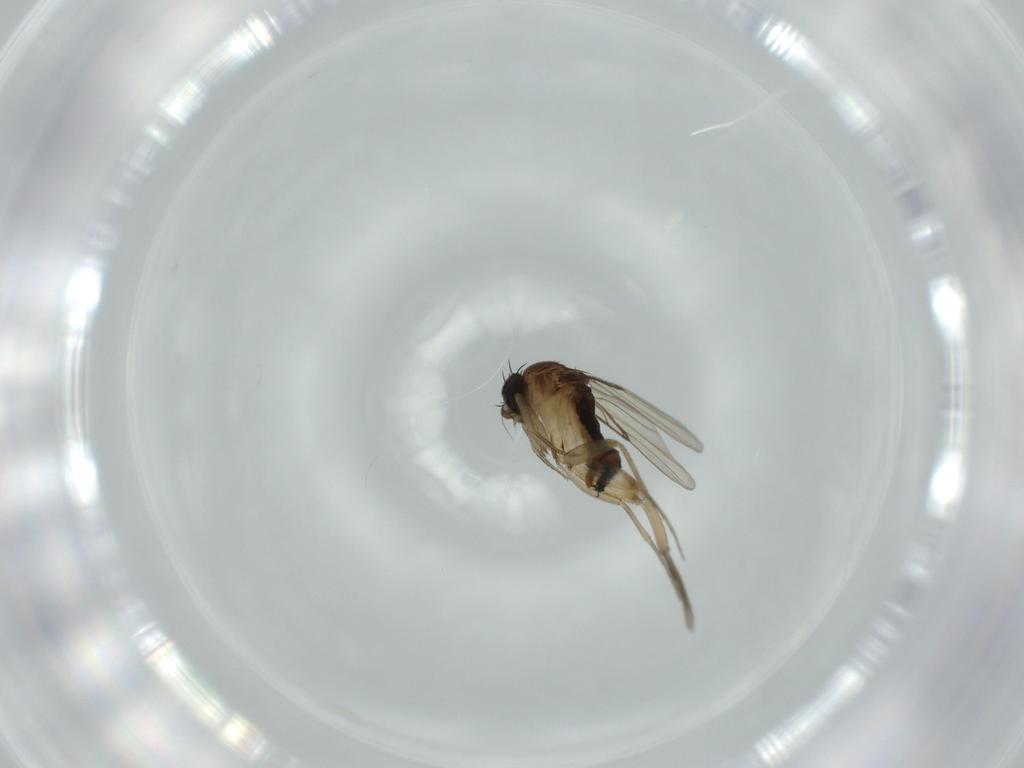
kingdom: Animalia
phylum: Arthropoda
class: Insecta
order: Diptera
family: Phoridae
